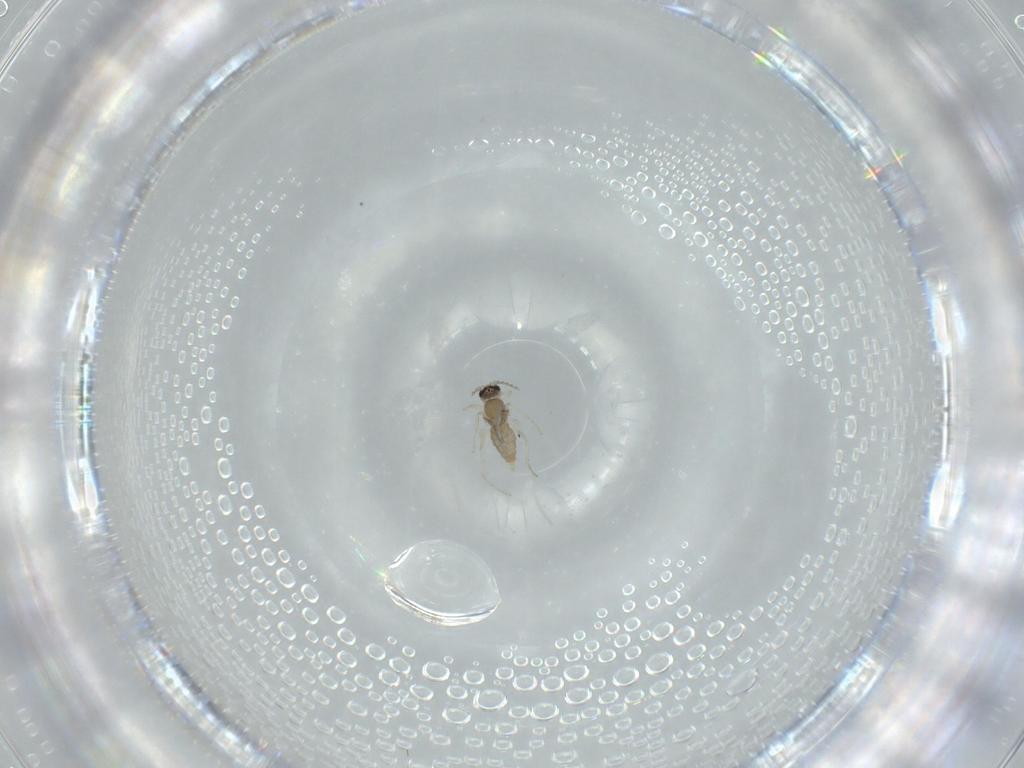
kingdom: Animalia
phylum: Arthropoda
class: Insecta
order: Diptera
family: Cecidomyiidae
